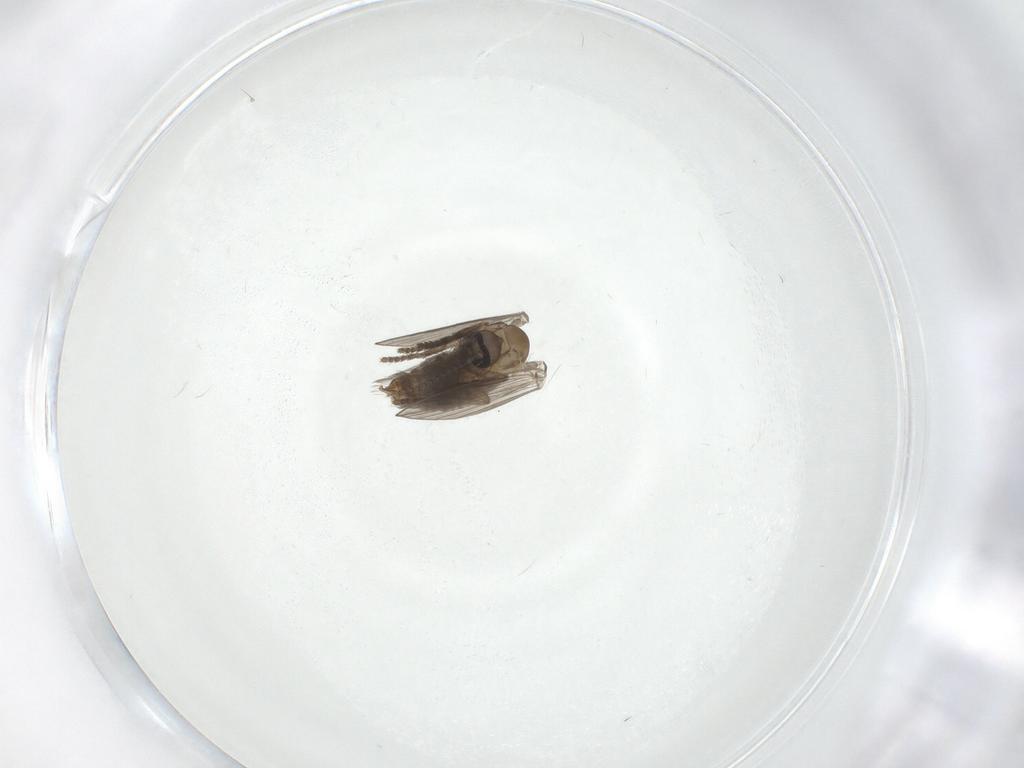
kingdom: Animalia
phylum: Arthropoda
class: Insecta
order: Diptera
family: Psychodidae
